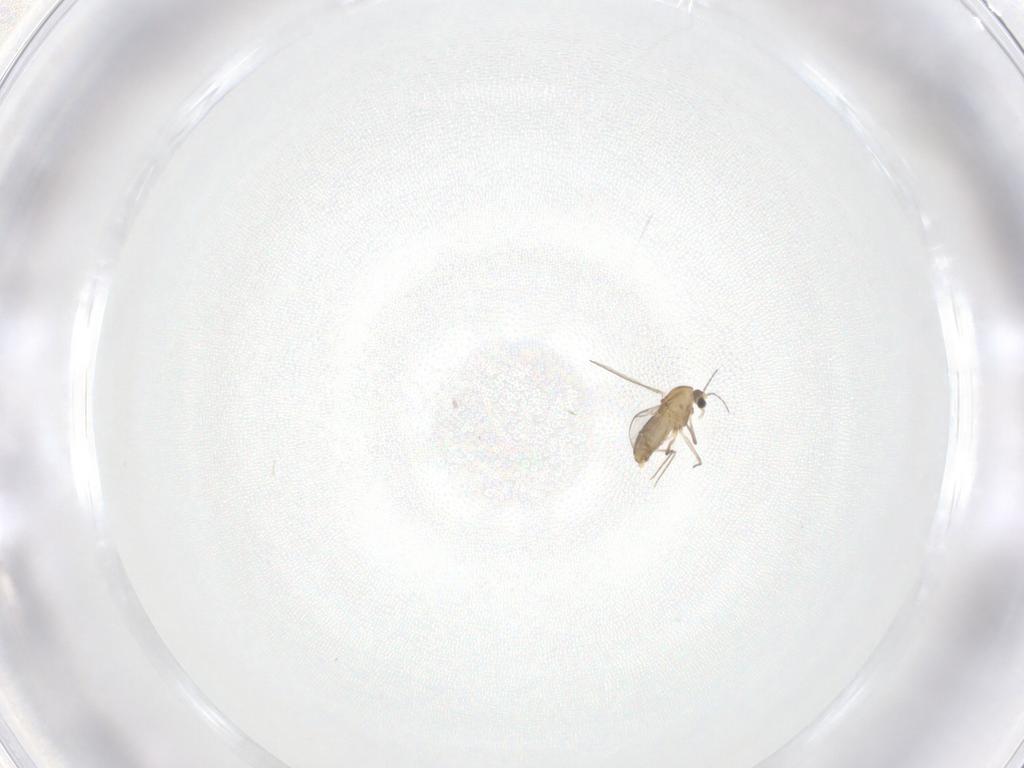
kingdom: Animalia
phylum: Arthropoda
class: Insecta
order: Diptera
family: Chironomidae
